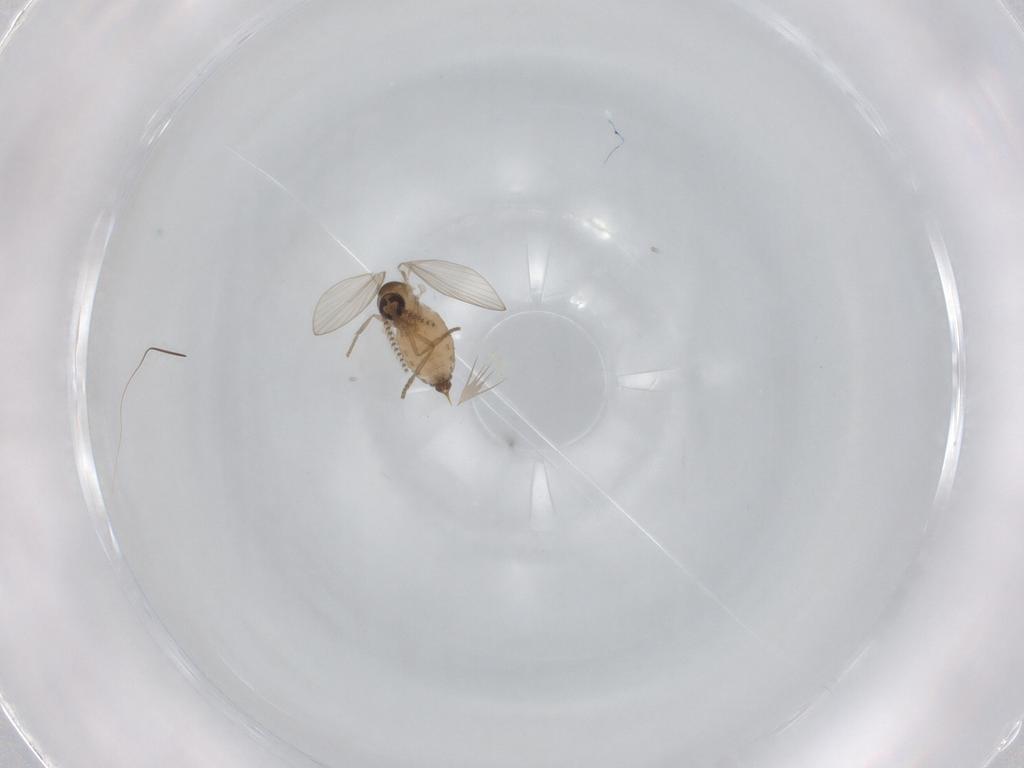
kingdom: Animalia
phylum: Arthropoda
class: Insecta
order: Diptera
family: Psychodidae
